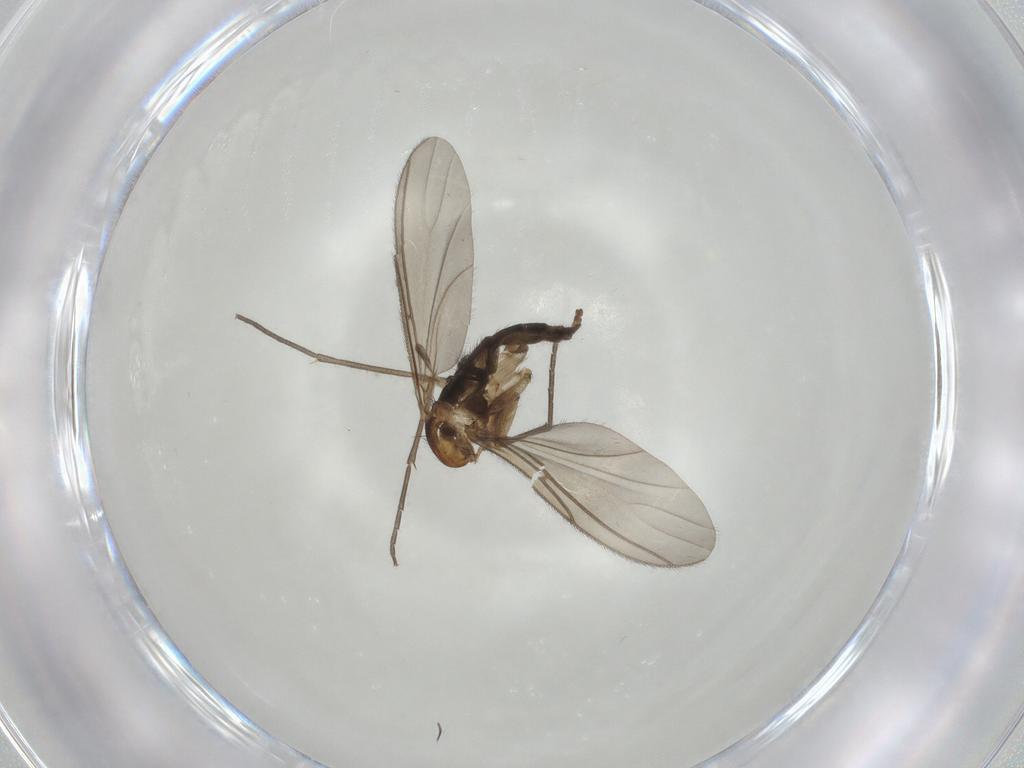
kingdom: Animalia
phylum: Arthropoda
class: Insecta
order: Diptera
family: Sciaridae
